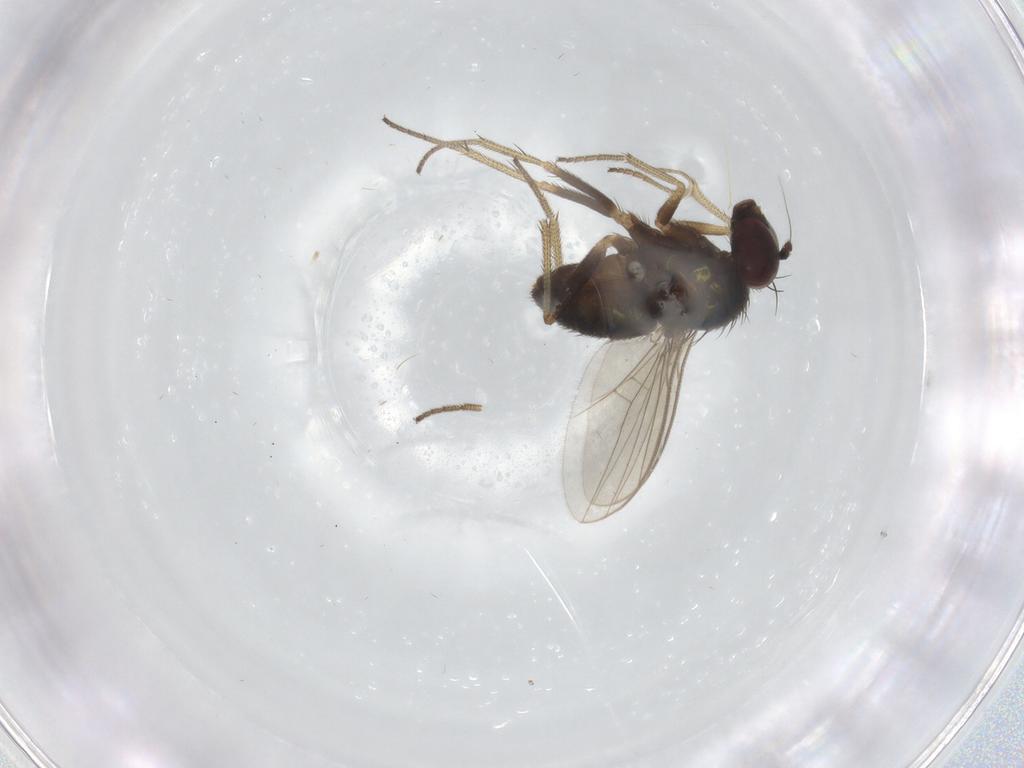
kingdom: Animalia
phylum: Arthropoda
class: Insecta
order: Diptera
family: Dolichopodidae
